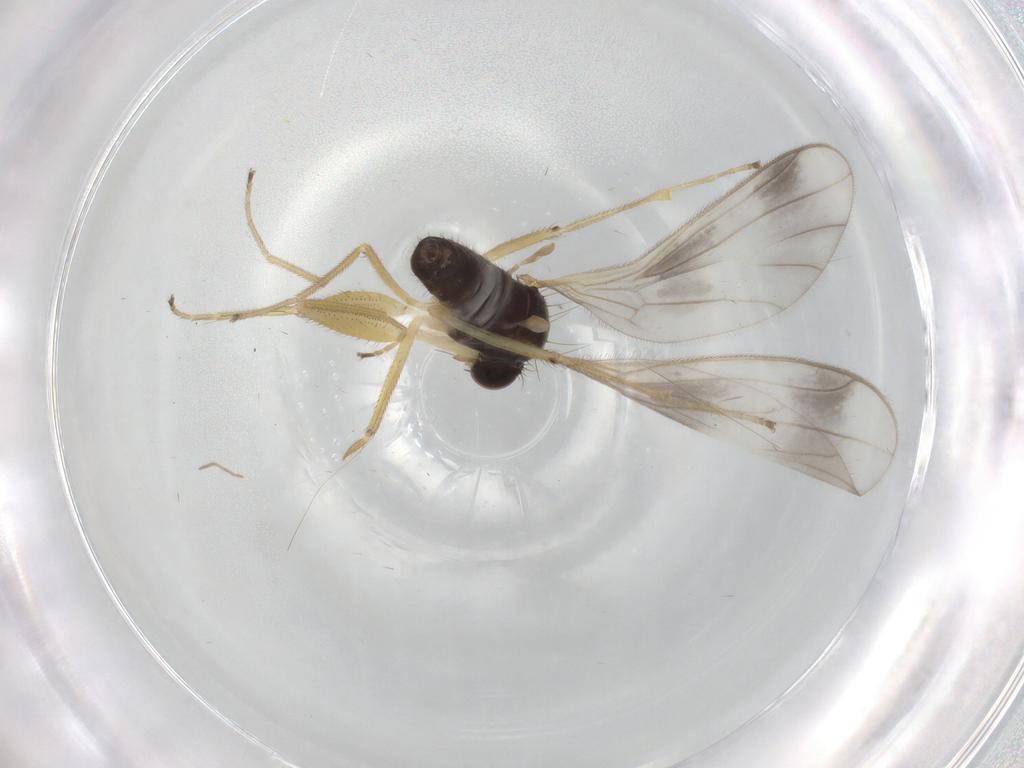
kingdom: Animalia
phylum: Arthropoda
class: Insecta
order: Diptera
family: Empididae
